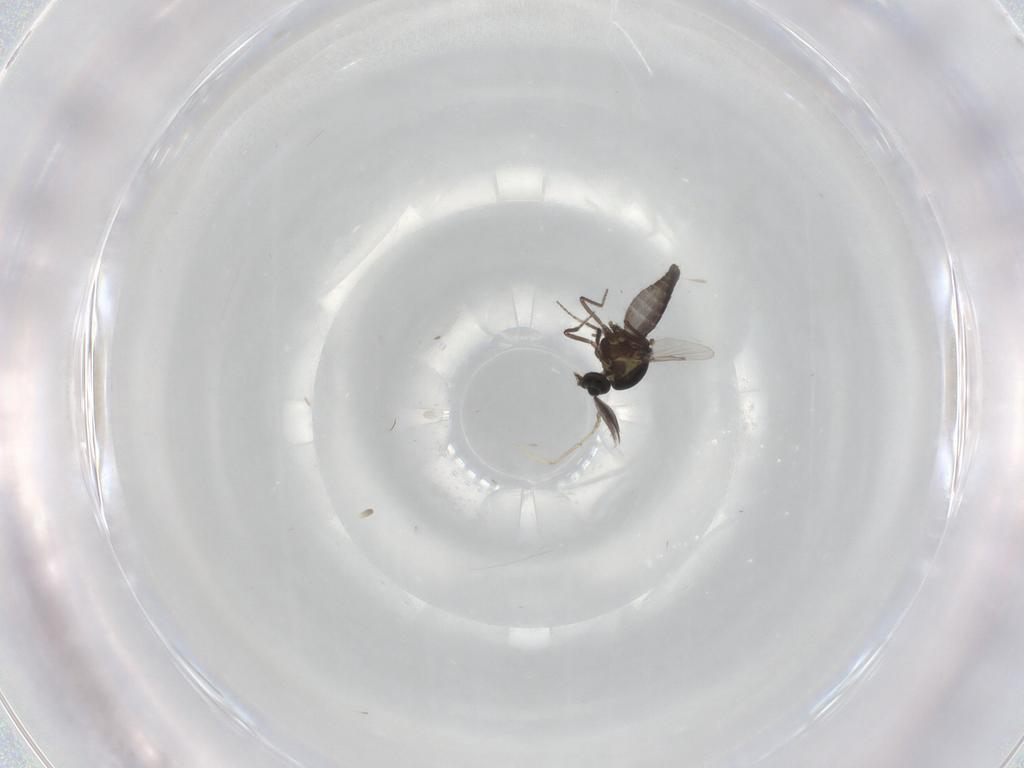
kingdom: Animalia
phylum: Arthropoda
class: Insecta
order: Diptera
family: Ceratopogonidae
